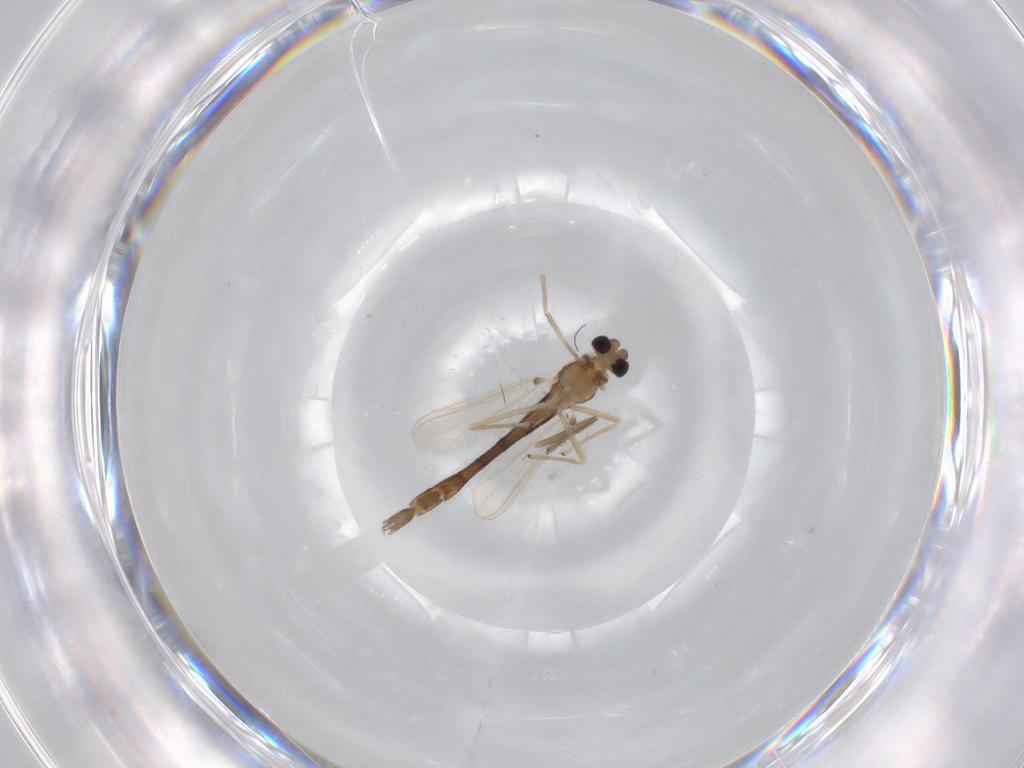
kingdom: Animalia
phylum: Arthropoda
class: Insecta
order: Diptera
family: Chironomidae
